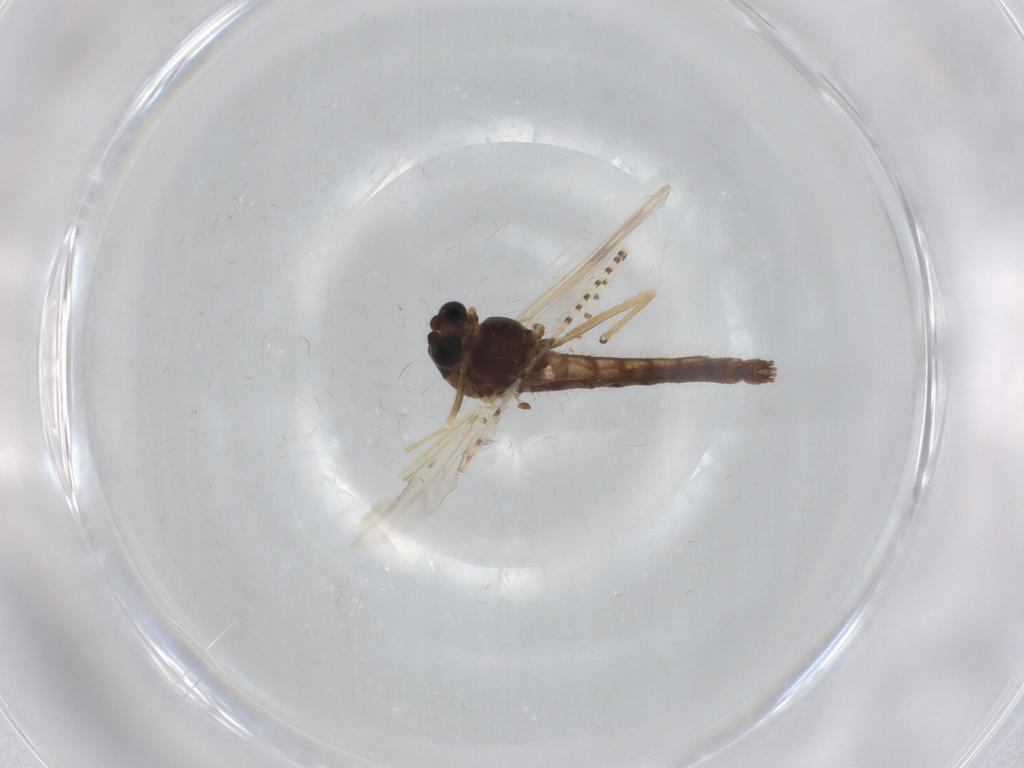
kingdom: Animalia
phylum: Arthropoda
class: Insecta
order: Diptera
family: Chironomidae
